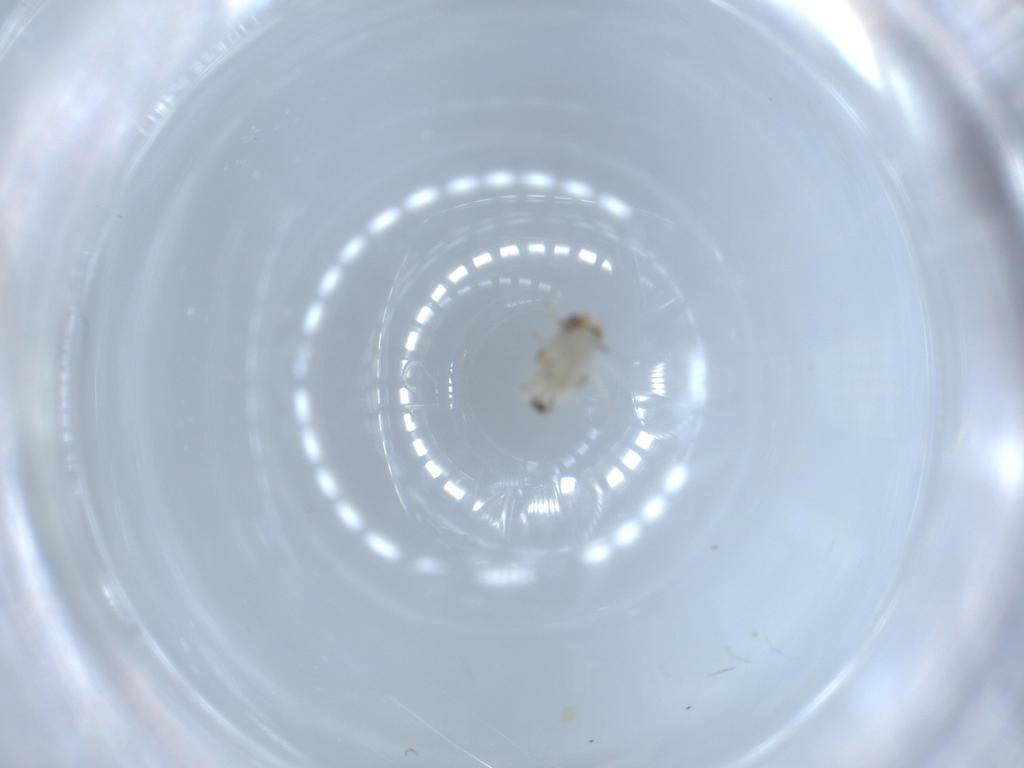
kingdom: Animalia
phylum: Arthropoda
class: Insecta
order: Hemiptera
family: Nogodinidae
